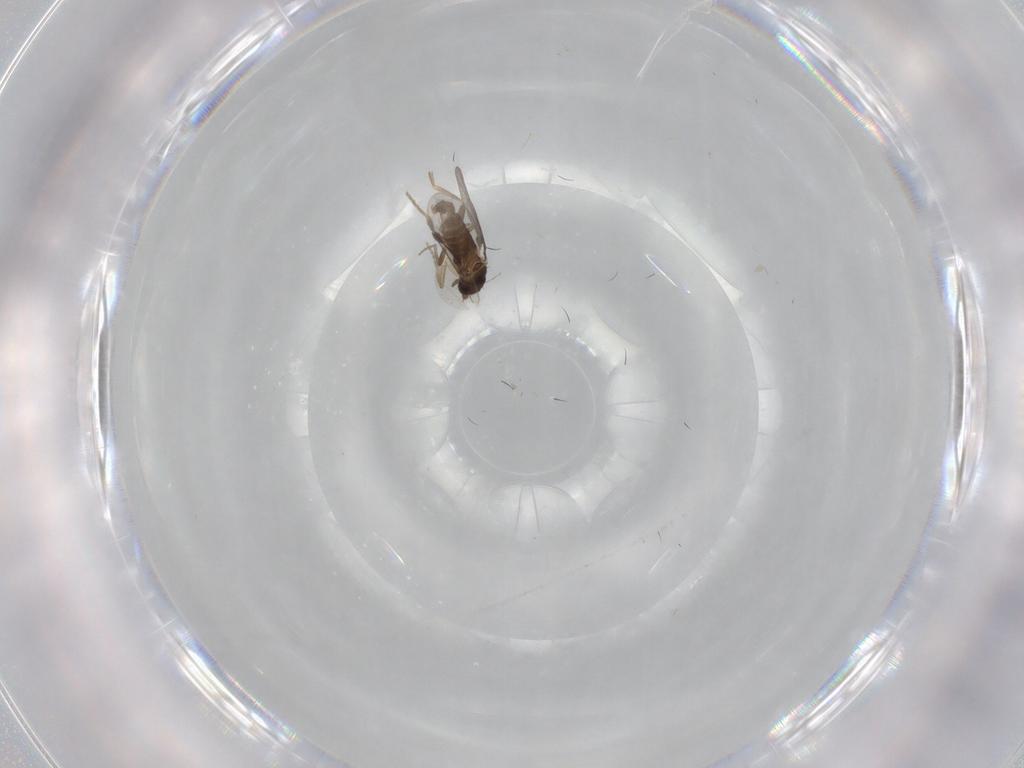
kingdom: Animalia
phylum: Arthropoda
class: Insecta
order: Diptera
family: Cecidomyiidae
